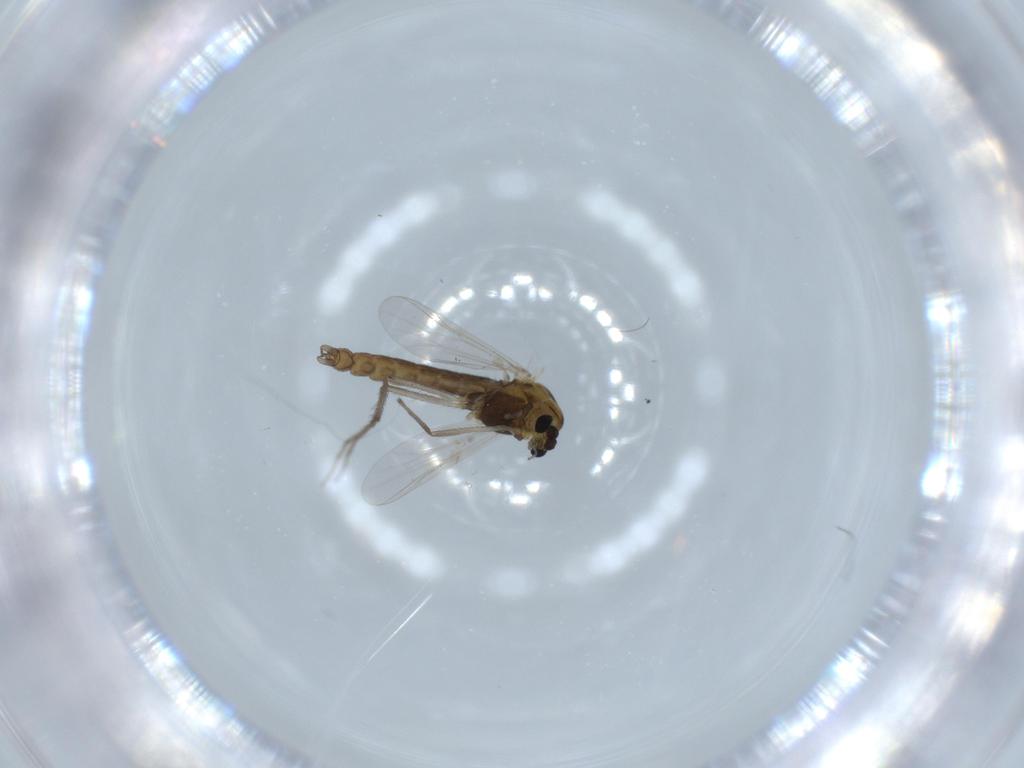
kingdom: Animalia
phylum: Arthropoda
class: Insecta
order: Diptera
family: Chironomidae
